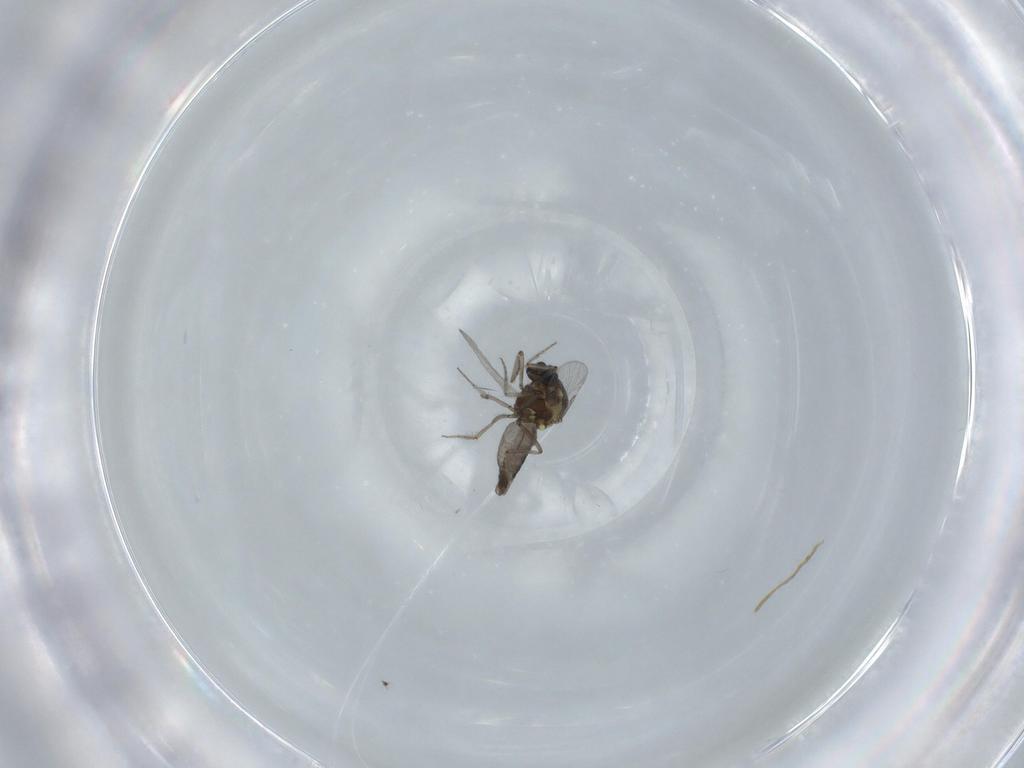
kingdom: Animalia
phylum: Arthropoda
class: Insecta
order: Diptera
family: Ceratopogonidae
